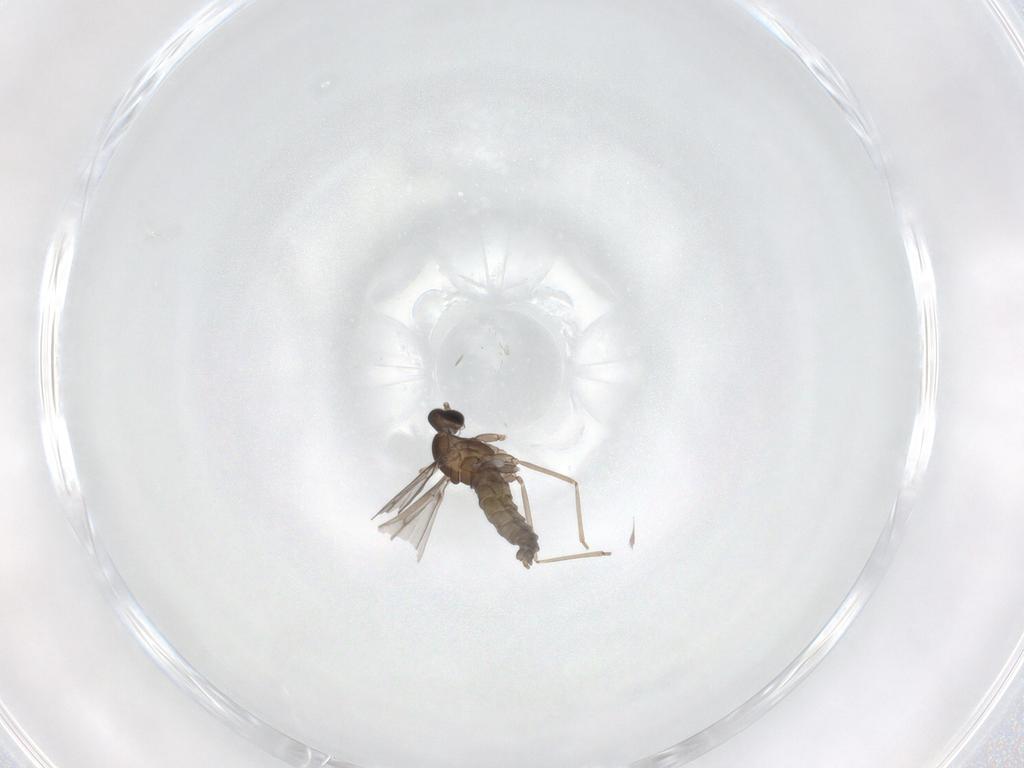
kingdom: Animalia
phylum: Arthropoda
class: Insecta
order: Diptera
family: Cecidomyiidae
